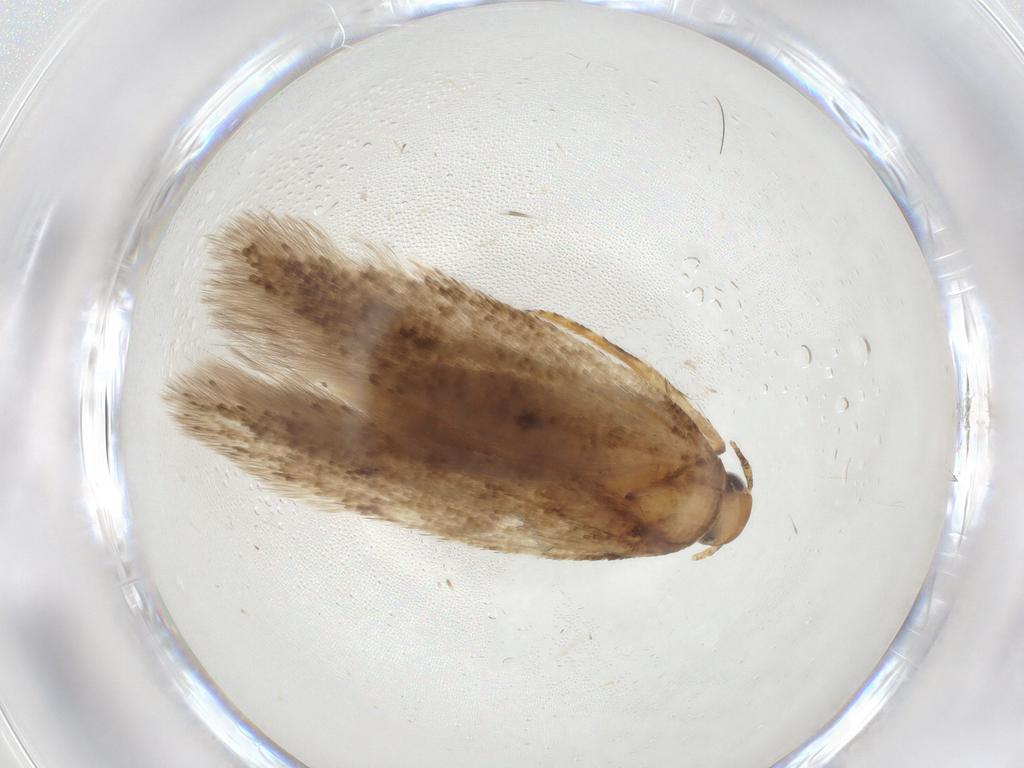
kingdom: Animalia
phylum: Arthropoda
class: Insecta
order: Lepidoptera
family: Gelechiidae
